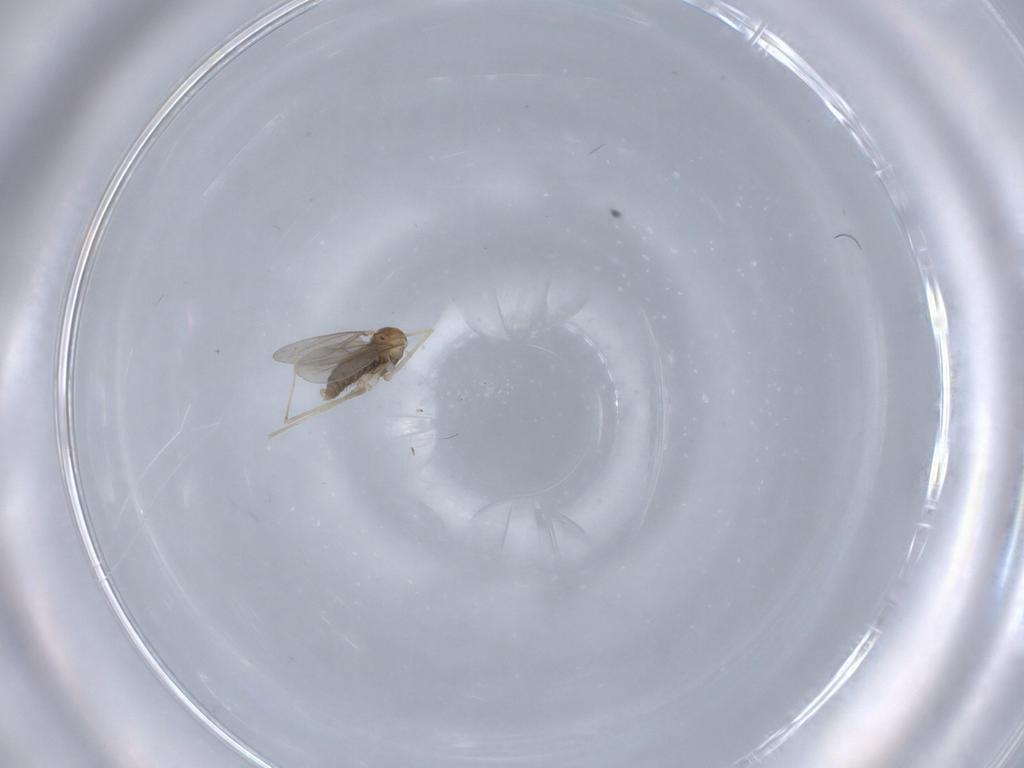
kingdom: Animalia
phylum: Arthropoda
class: Insecta
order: Diptera
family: Cecidomyiidae
